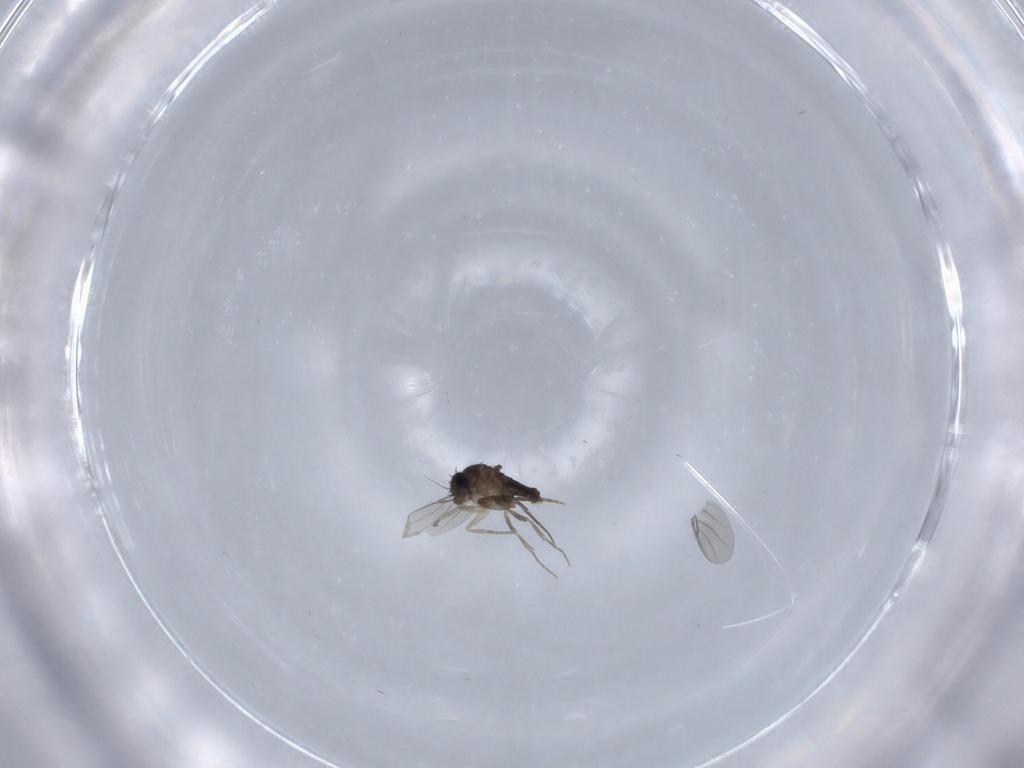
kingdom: Animalia
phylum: Arthropoda
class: Insecta
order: Diptera
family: Phoridae
